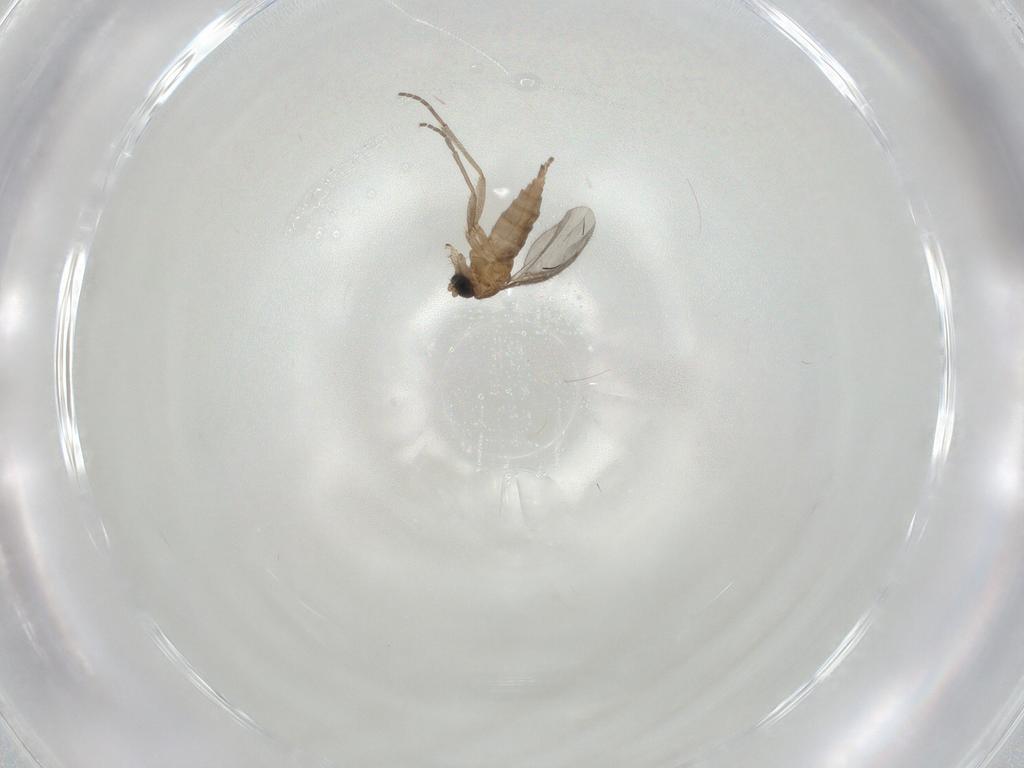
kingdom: Animalia
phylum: Arthropoda
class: Insecta
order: Diptera
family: Sciaridae
